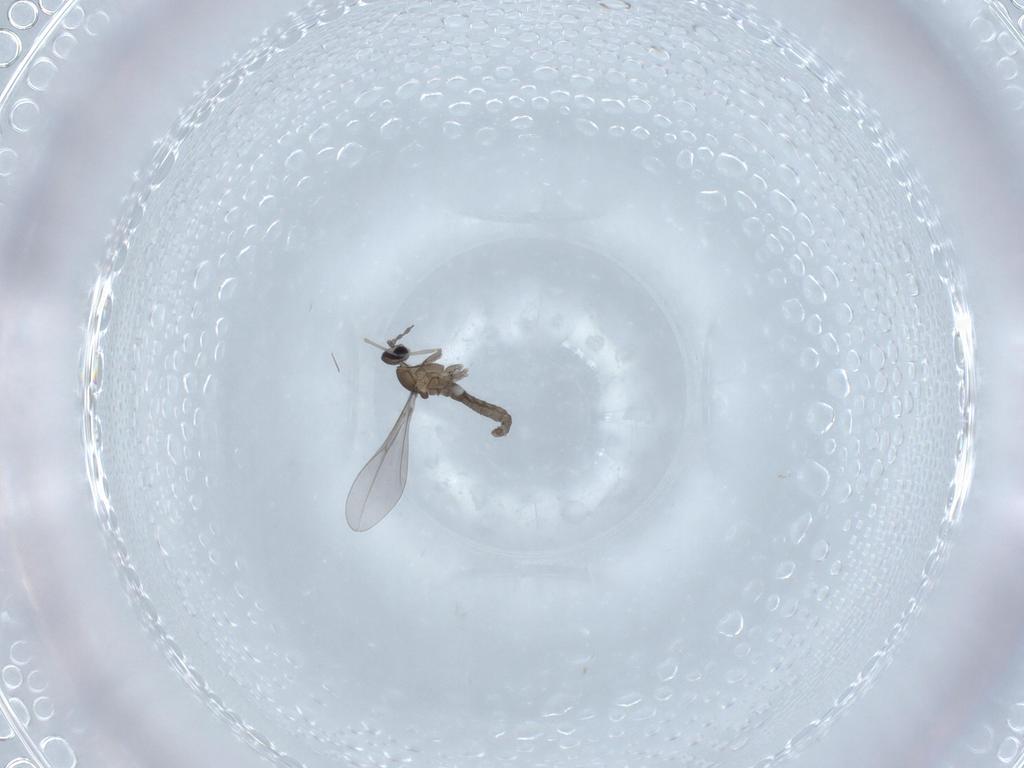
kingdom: Animalia
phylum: Arthropoda
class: Insecta
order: Diptera
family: Cecidomyiidae
